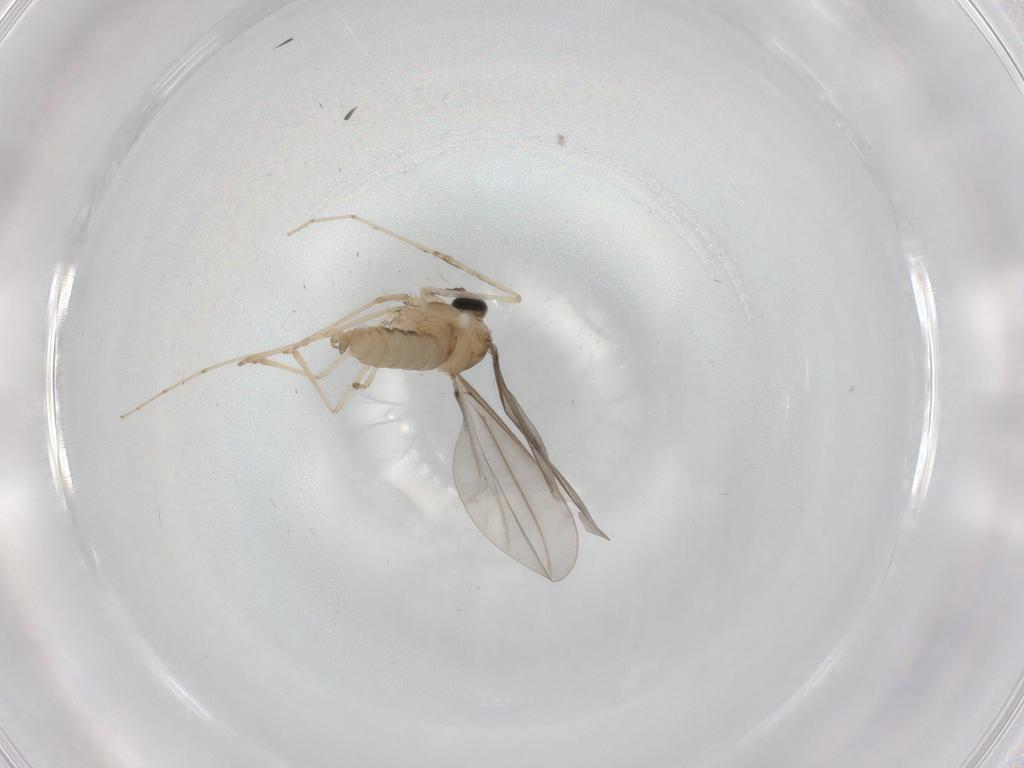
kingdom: Animalia
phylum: Arthropoda
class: Insecta
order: Diptera
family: Cecidomyiidae
